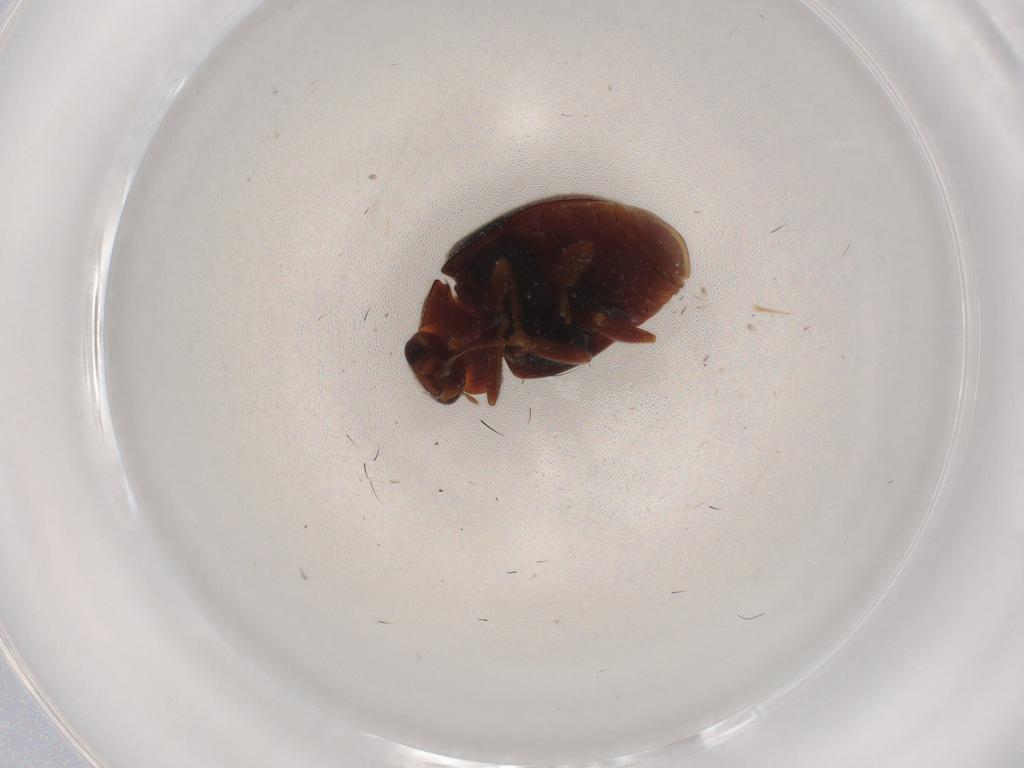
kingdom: Animalia
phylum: Arthropoda
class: Insecta
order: Coleoptera
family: Coccinellidae
